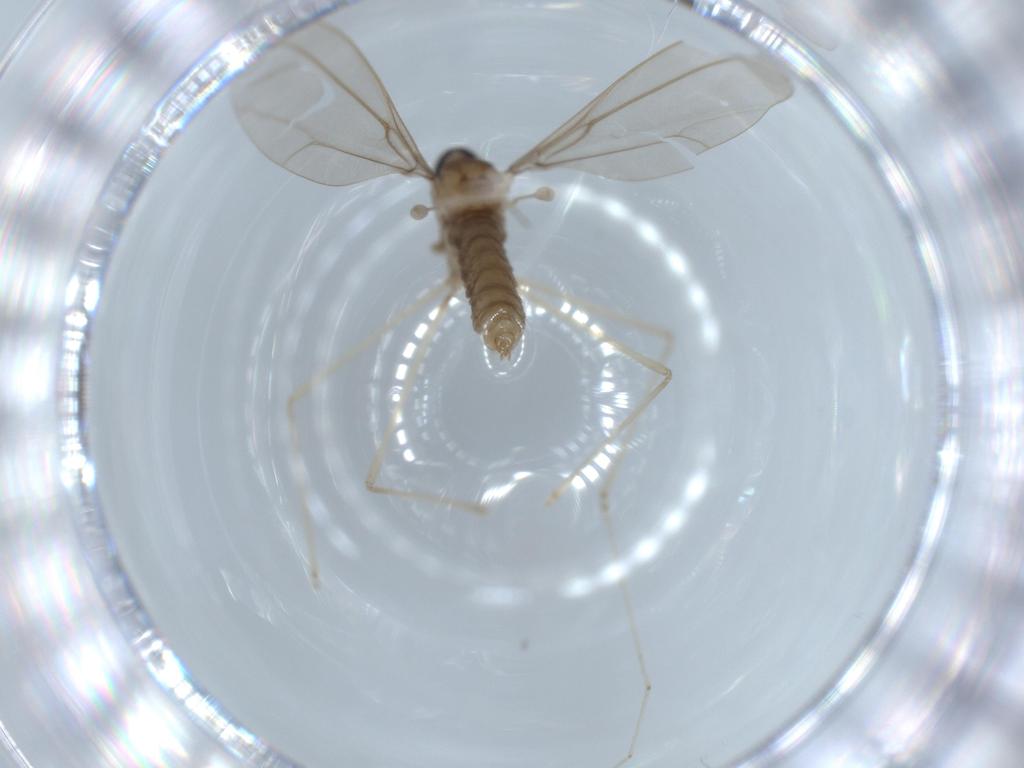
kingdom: Animalia
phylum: Arthropoda
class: Insecta
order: Diptera
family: Cecidomyiidae
